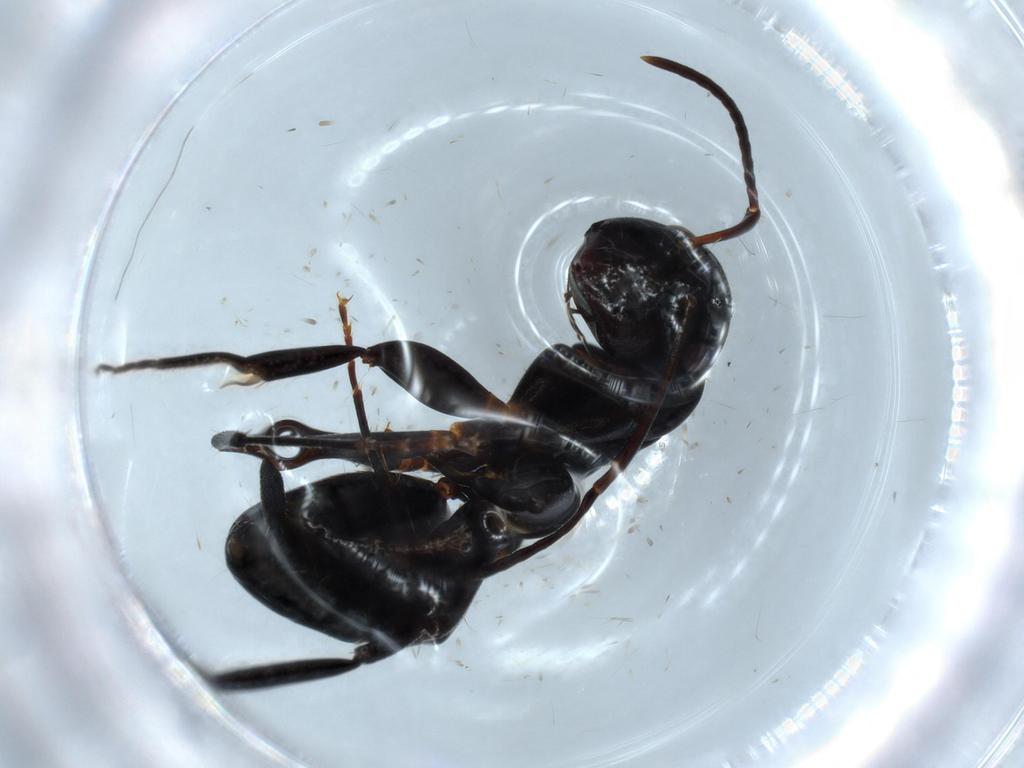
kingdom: Animalia
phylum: Arthropoda
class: Insecta
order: Hymenoptera
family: Formicidae
